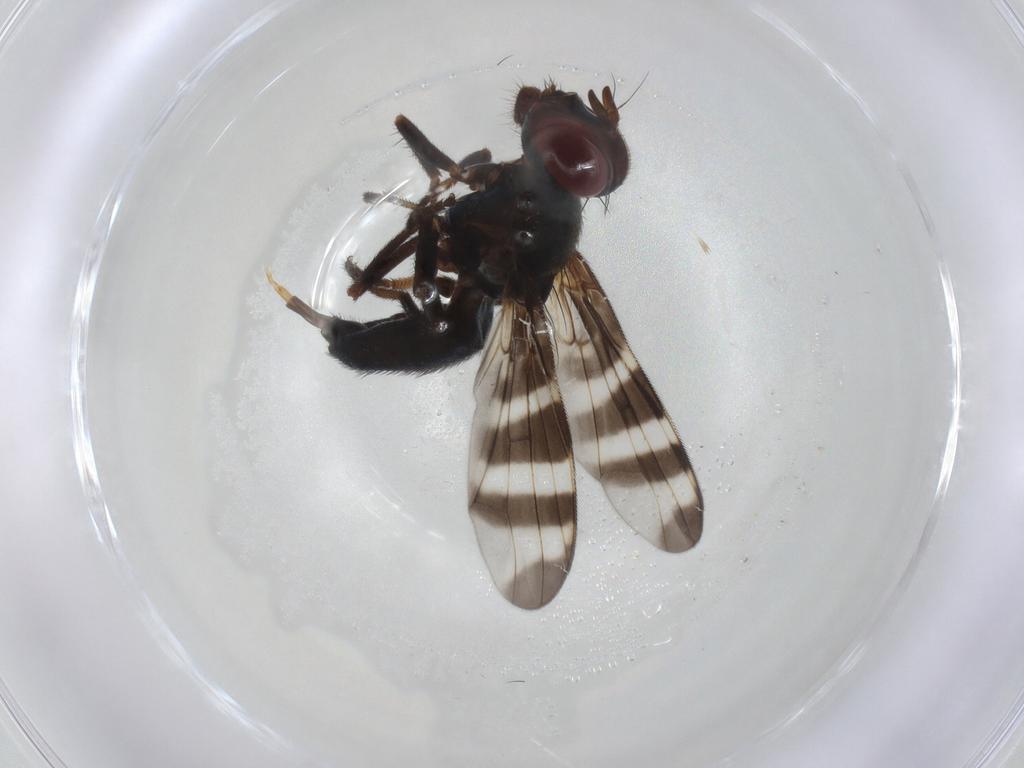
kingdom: Animalia
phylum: Arthropoda
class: Insecta
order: Diptera
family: Platystomatidae
